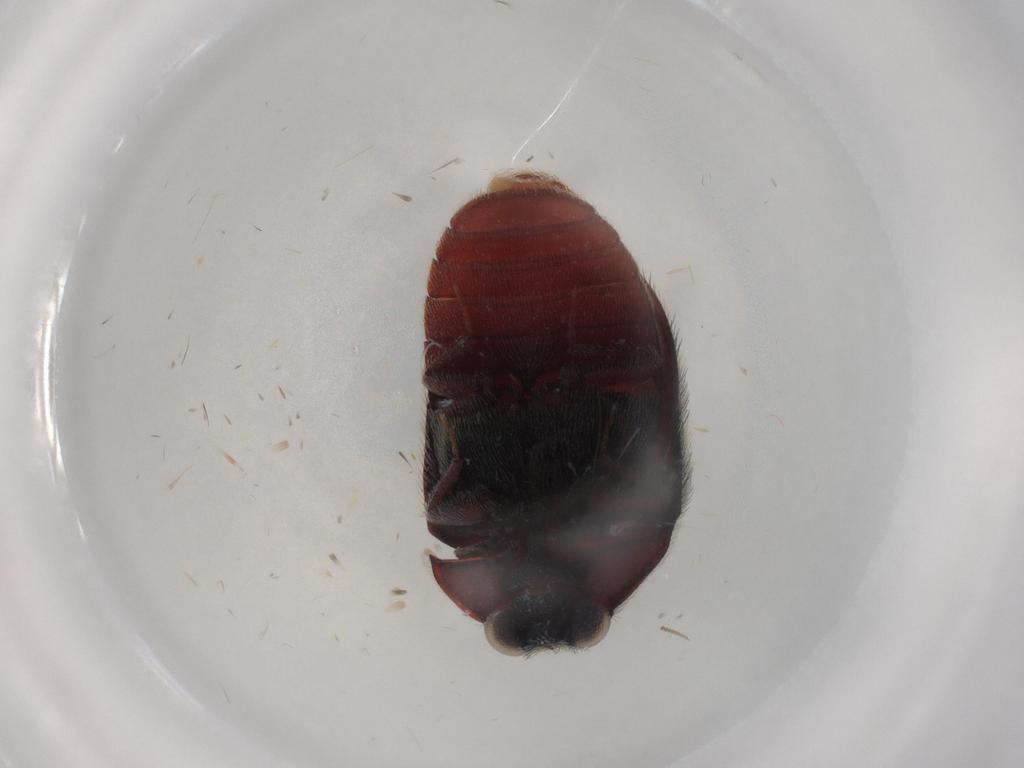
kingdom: Animalia
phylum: Arthropoda
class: Insecta
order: Coleoptera
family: Dermestidae
